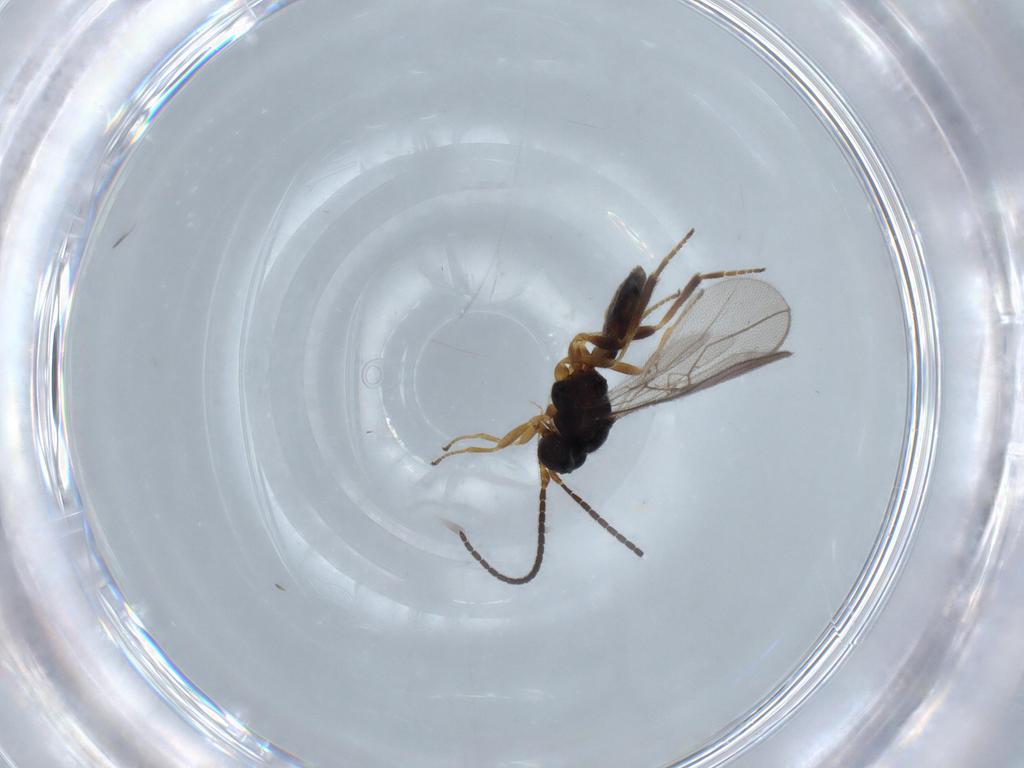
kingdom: Animalia
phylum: Arthropoda
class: Insecta
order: Hymenoptera
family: Braconidae
